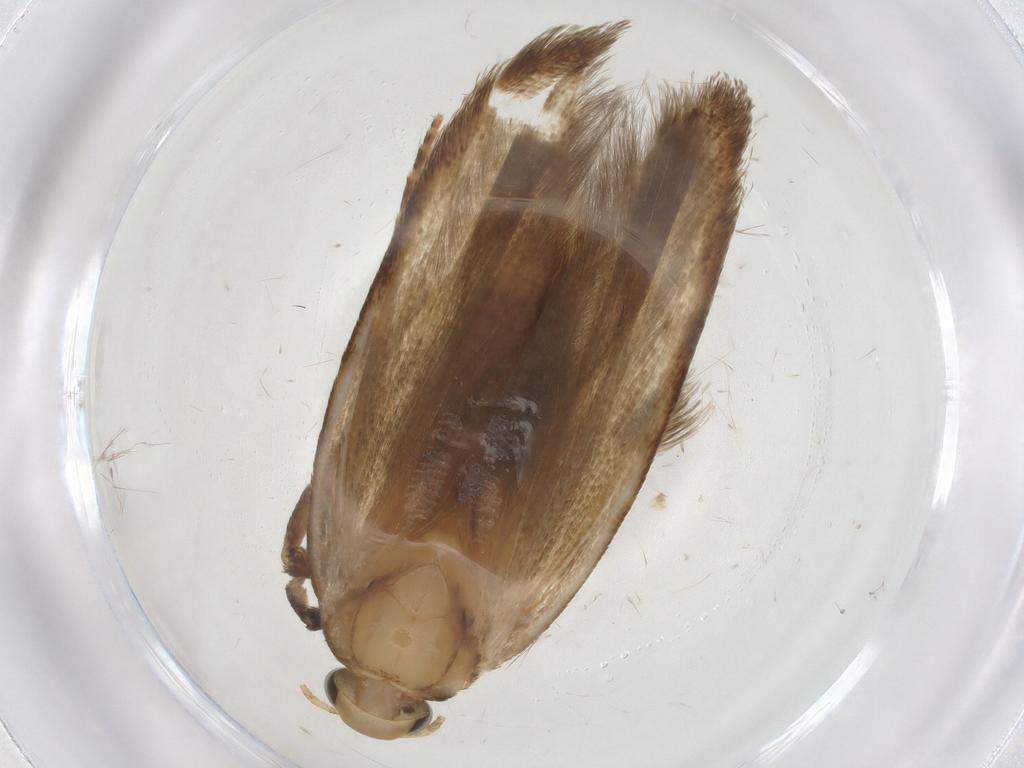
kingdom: Animalia
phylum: Arthropoda
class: Insecta
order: Lepidoptera
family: Gelechiidae
